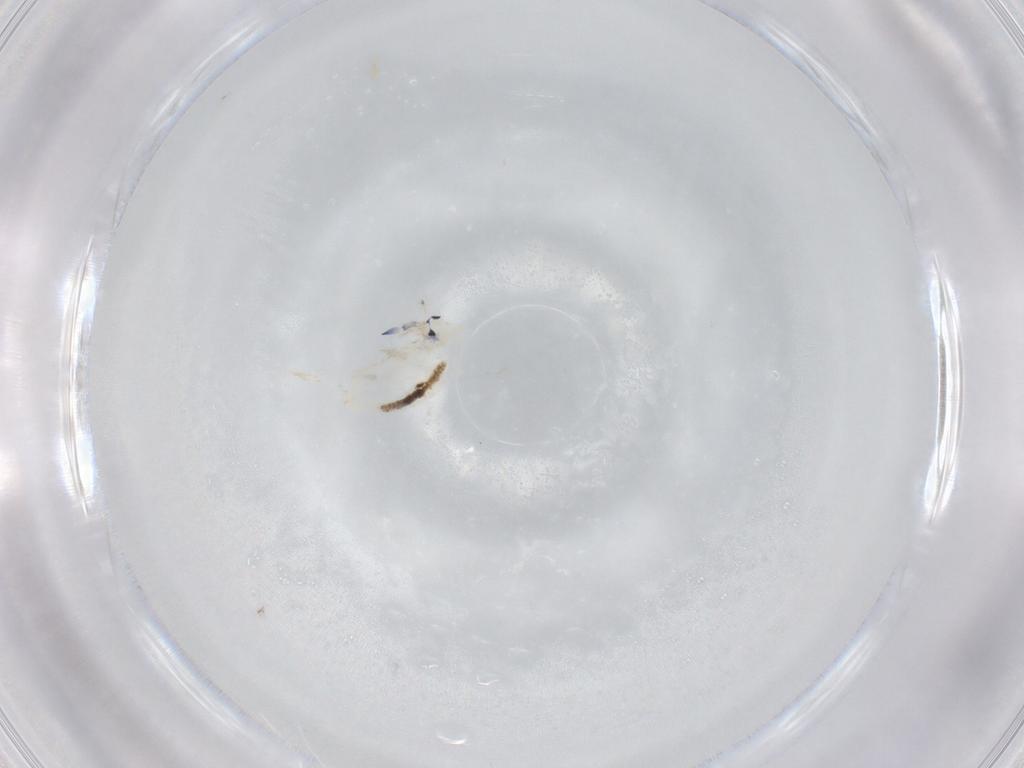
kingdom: Animalia
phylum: Arthropoda
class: Collembola
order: Entomobryomorpha
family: Entomobryidae
